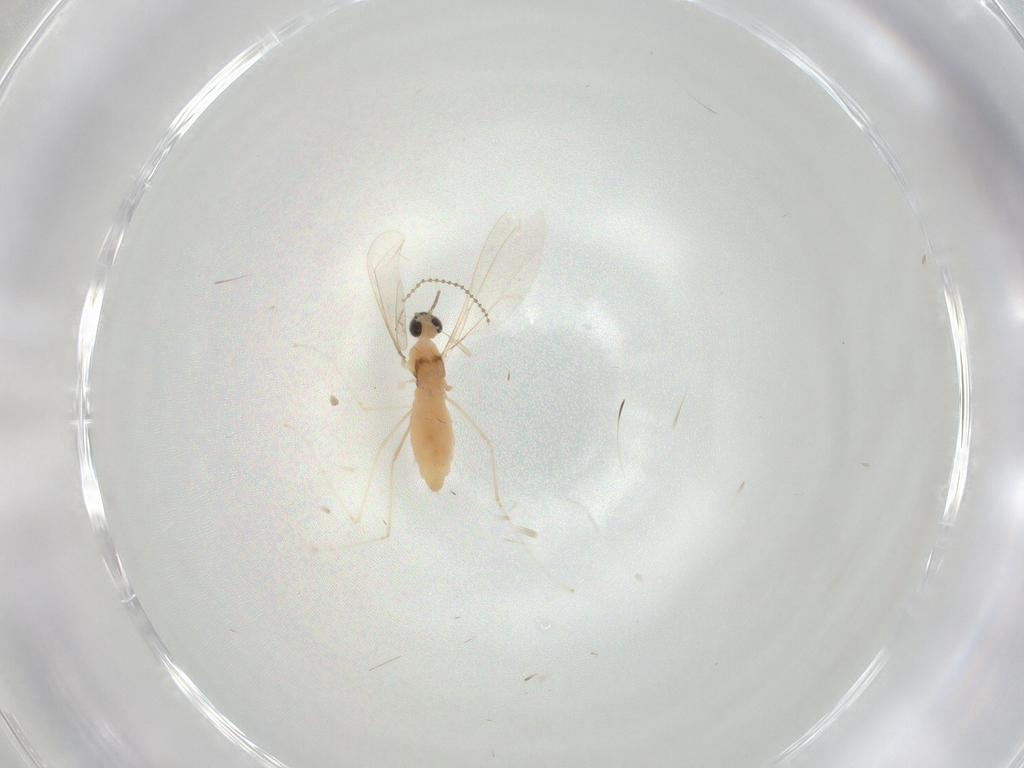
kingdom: Animalia
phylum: Arthropoda
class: Insecta
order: Diptera
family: Cecidomyiidae
